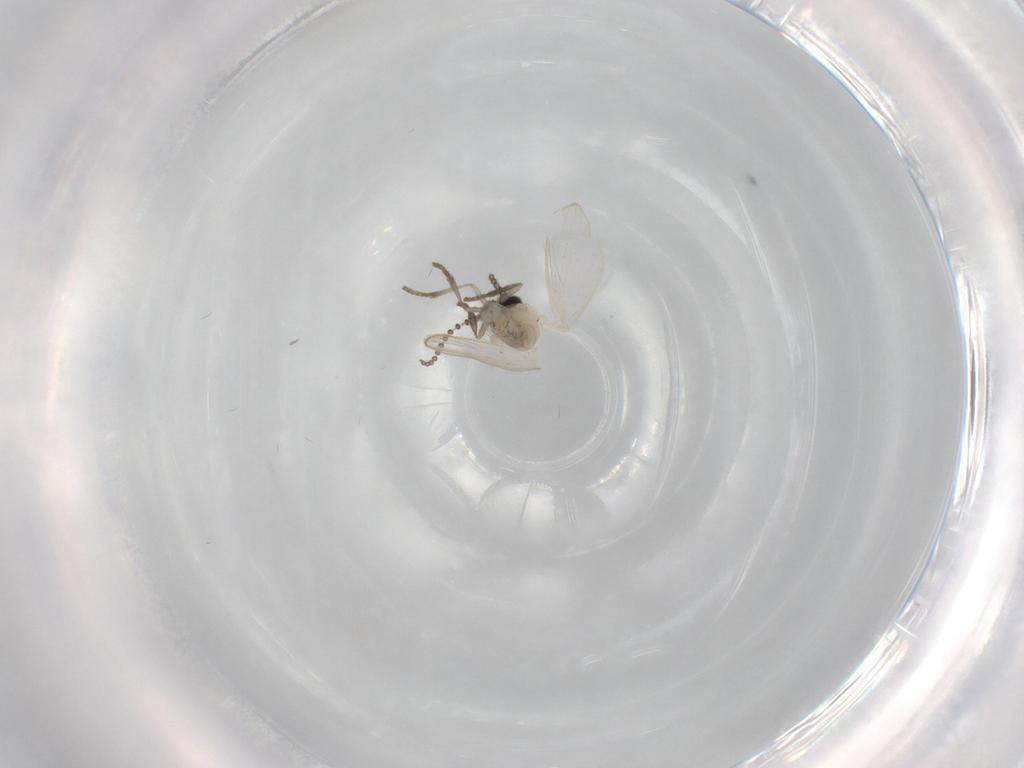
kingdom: Animalia
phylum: Arthropoda
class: Insecta
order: Diptera
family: Psychodidae
